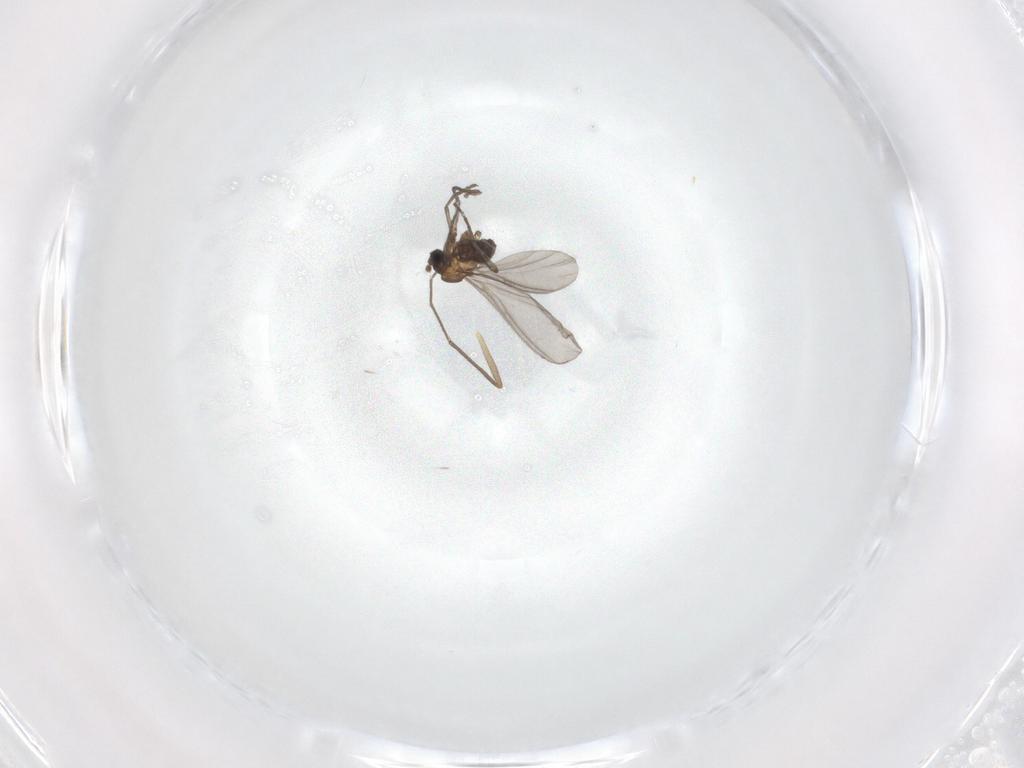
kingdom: Animalia
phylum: Arthropoda
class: Insecta
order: Diptera
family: Sciaridae
